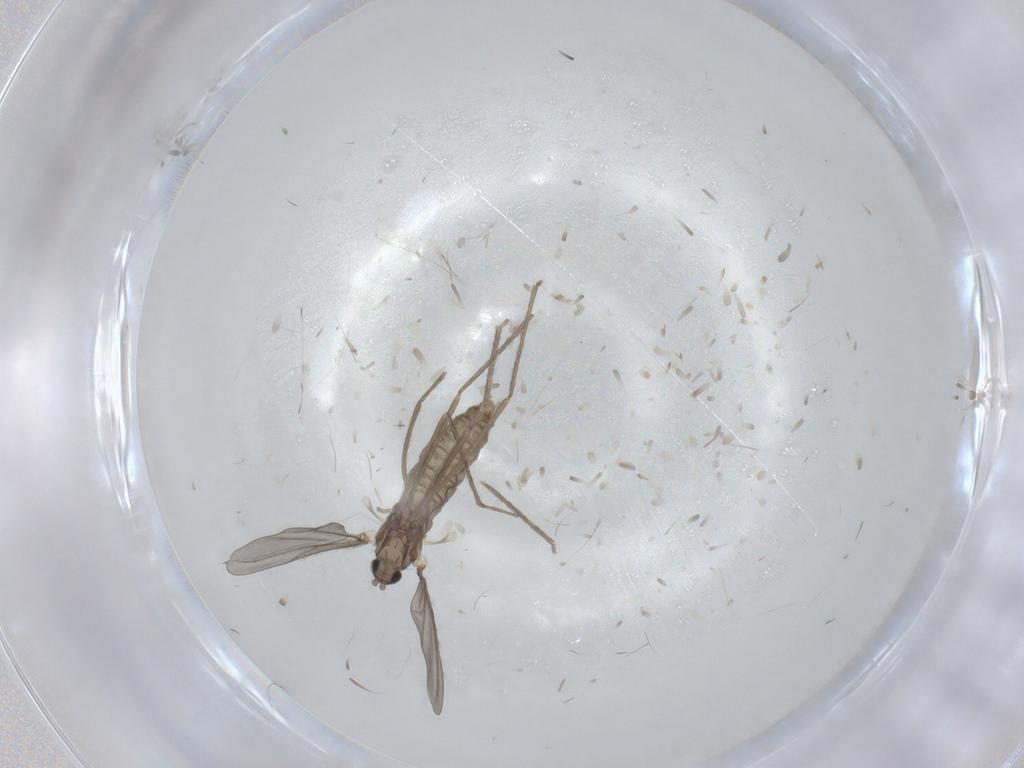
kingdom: Animalia
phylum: Arthropoda
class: Insecta
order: Diptera
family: Cecidomyiidae
